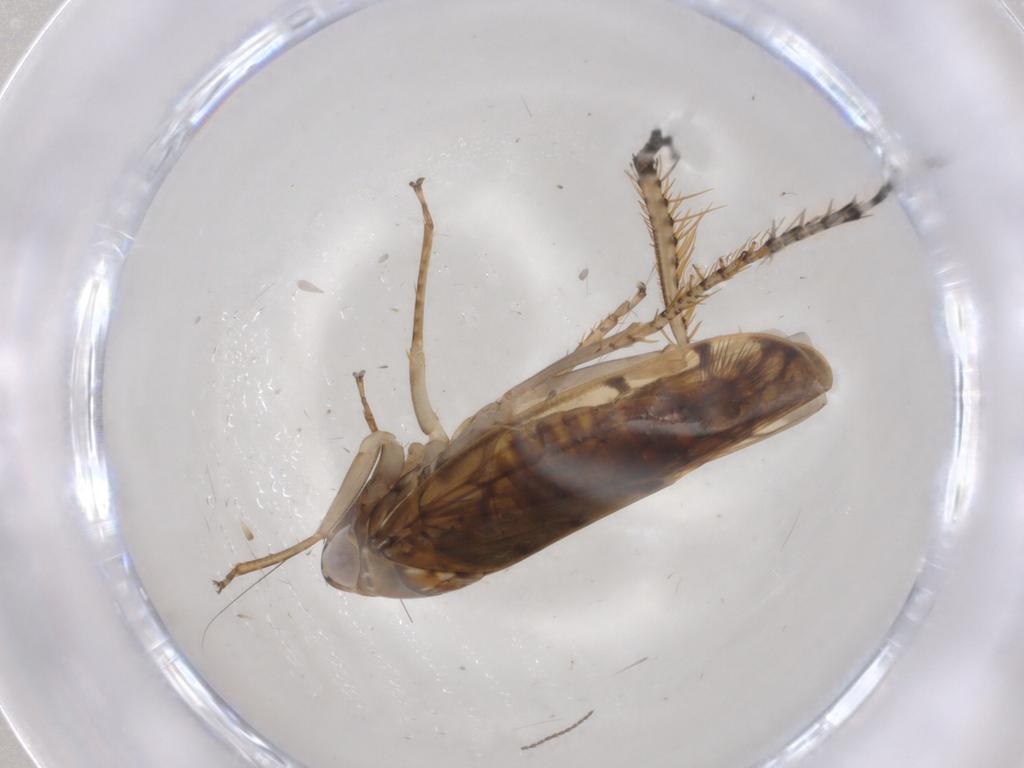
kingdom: Animalia
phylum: Arthropoda
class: Insecta
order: Hemiptera
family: Cicadellidae
